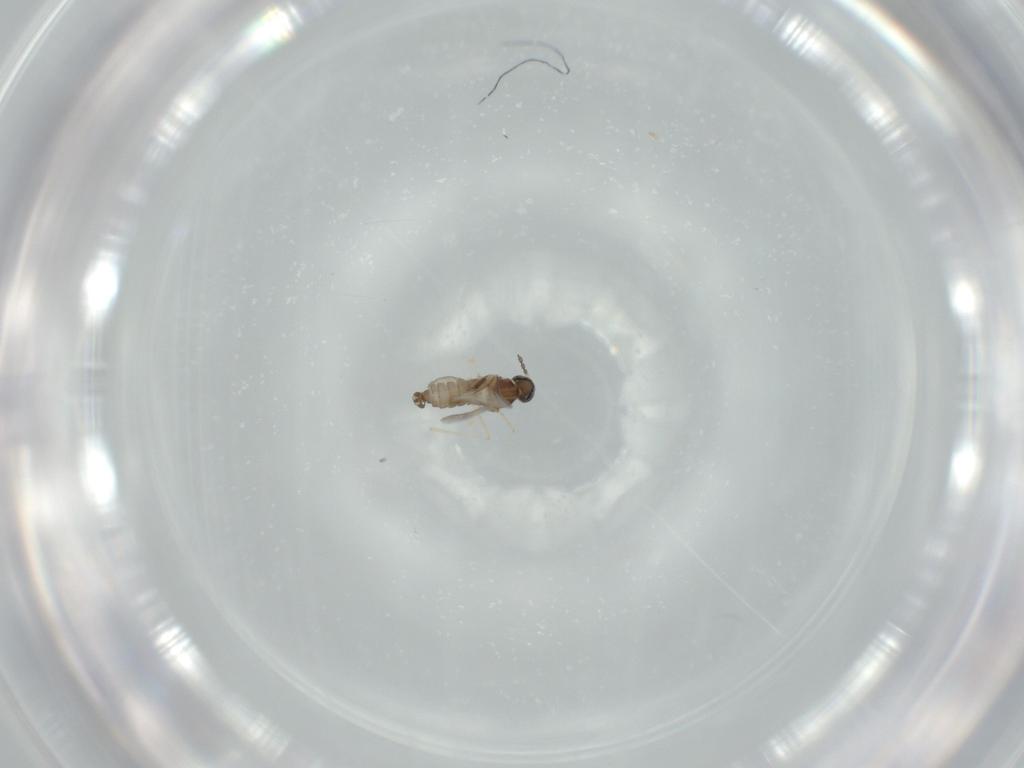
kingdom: Animalia
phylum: Arthropoda
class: Insecta
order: Diptera
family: Cecidomyiidae
